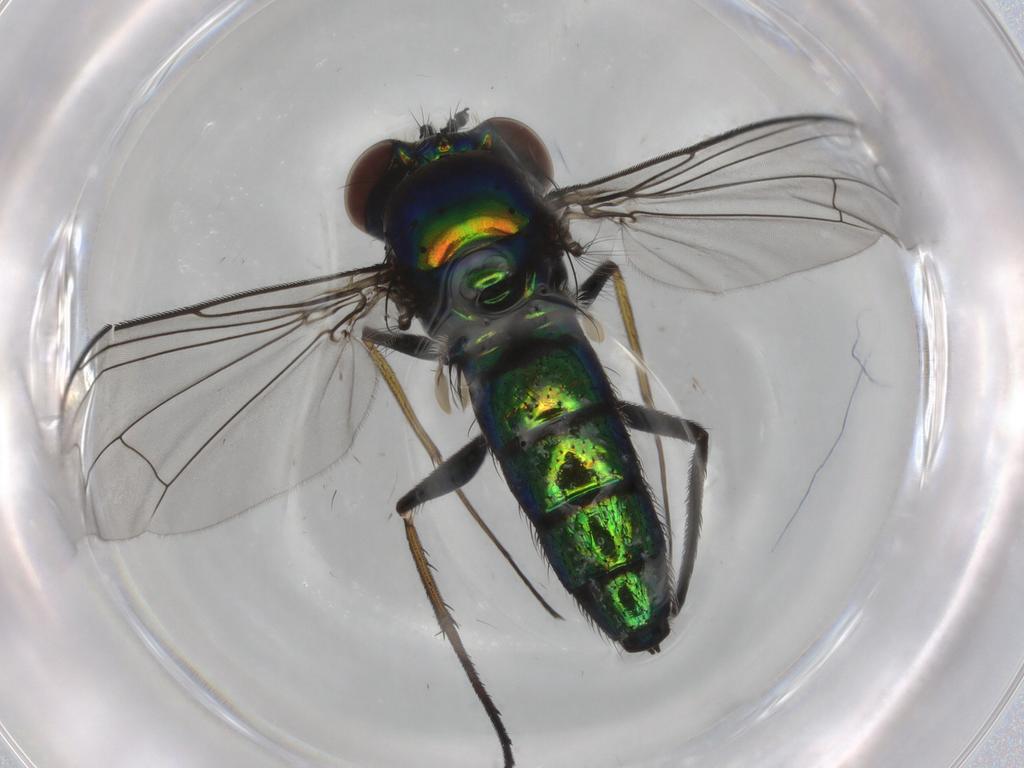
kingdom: Animalia
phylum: Arthropoda
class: Insecta
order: Diptera
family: Dolichopodidae
